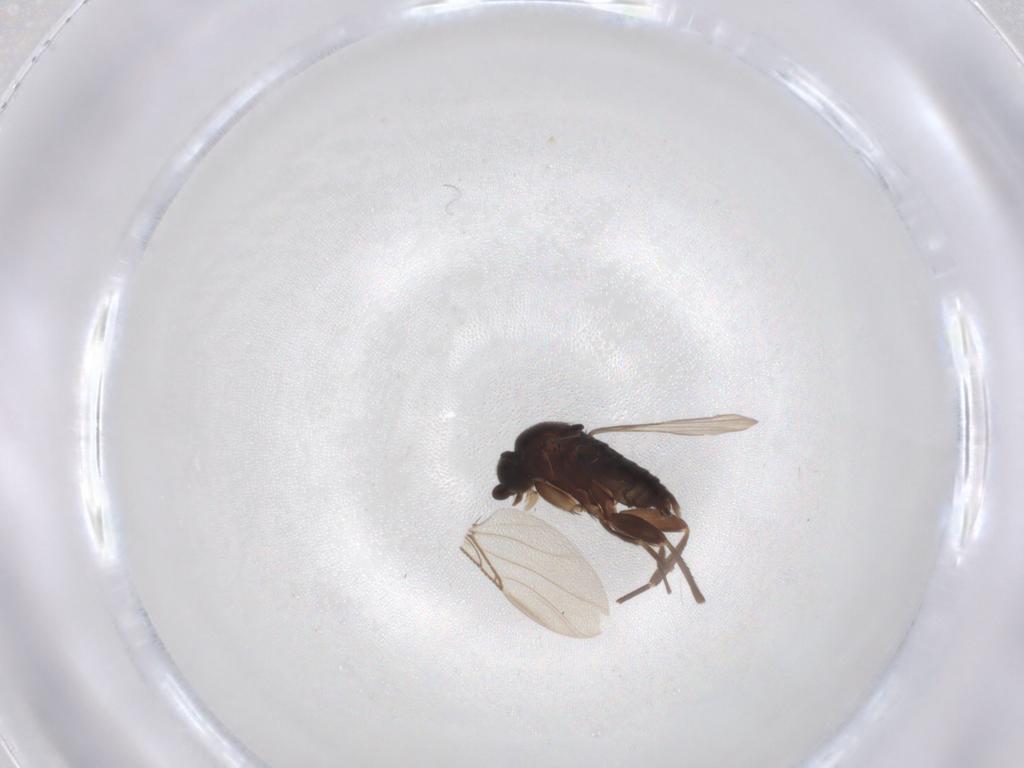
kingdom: Animalia
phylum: Arthropoda
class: Insecta
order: Diptera
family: Phoridae
